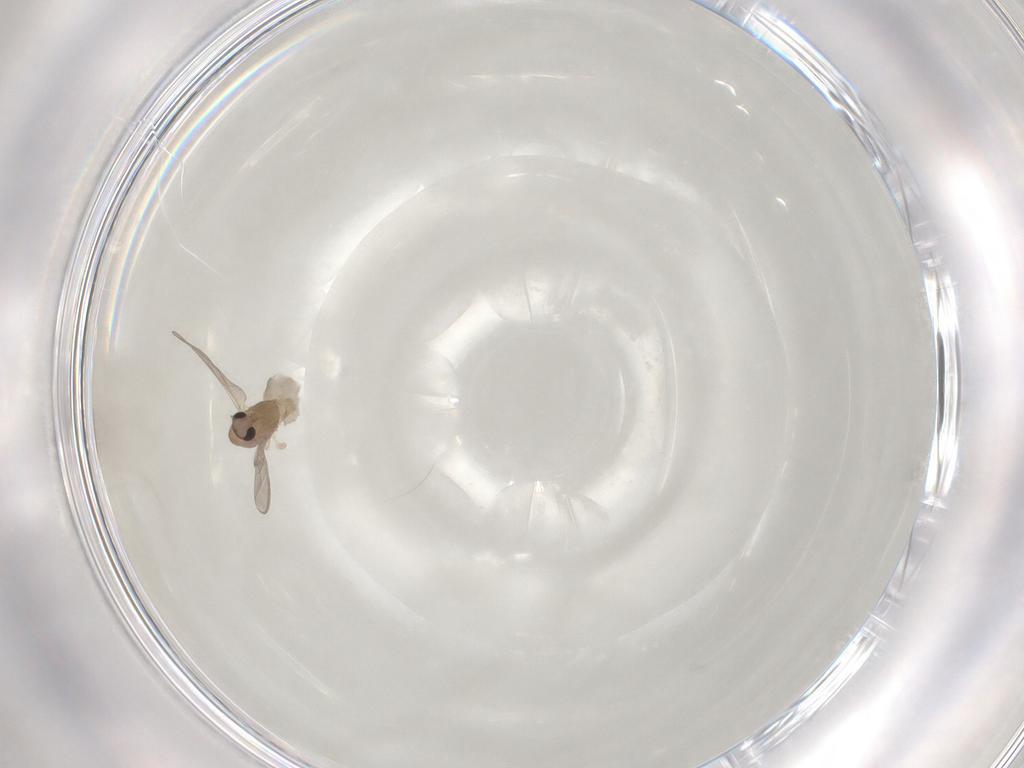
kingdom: Animalia
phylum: Arthropoda
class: Insecta
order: Diptera
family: Chironomidae
